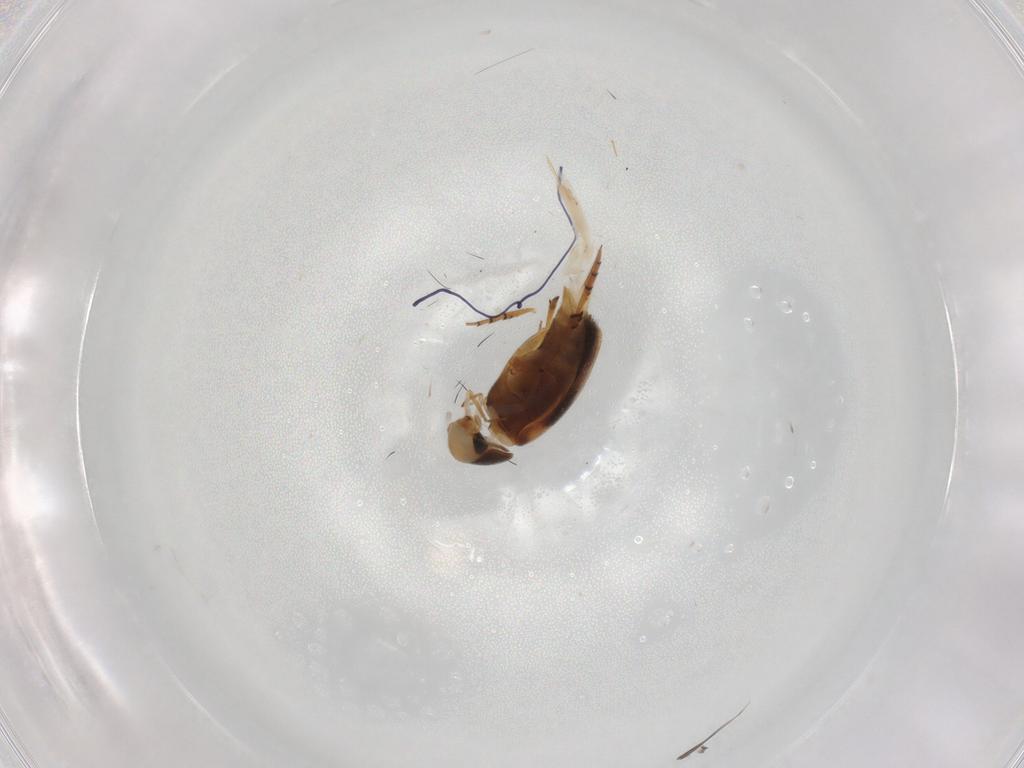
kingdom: Animalia
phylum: Arthropoda
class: Insecta
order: Coleoptera
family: Mordellidae
